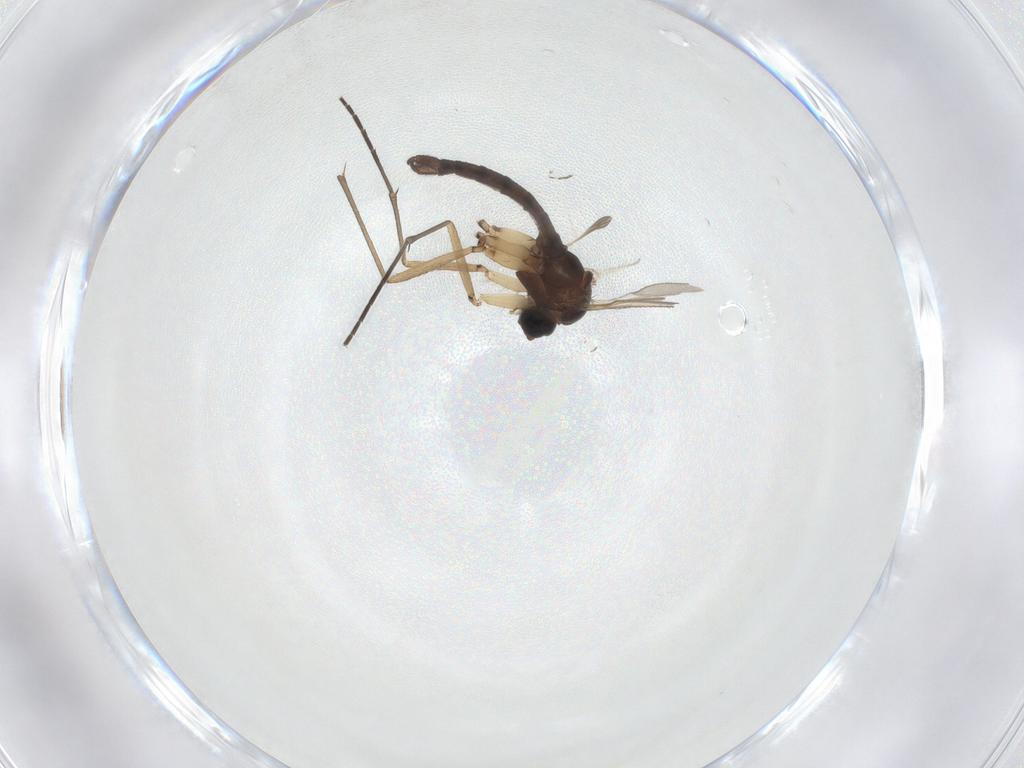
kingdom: Animalia
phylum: Arthropoda
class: Insecta
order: Diptera
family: Sciaridae
